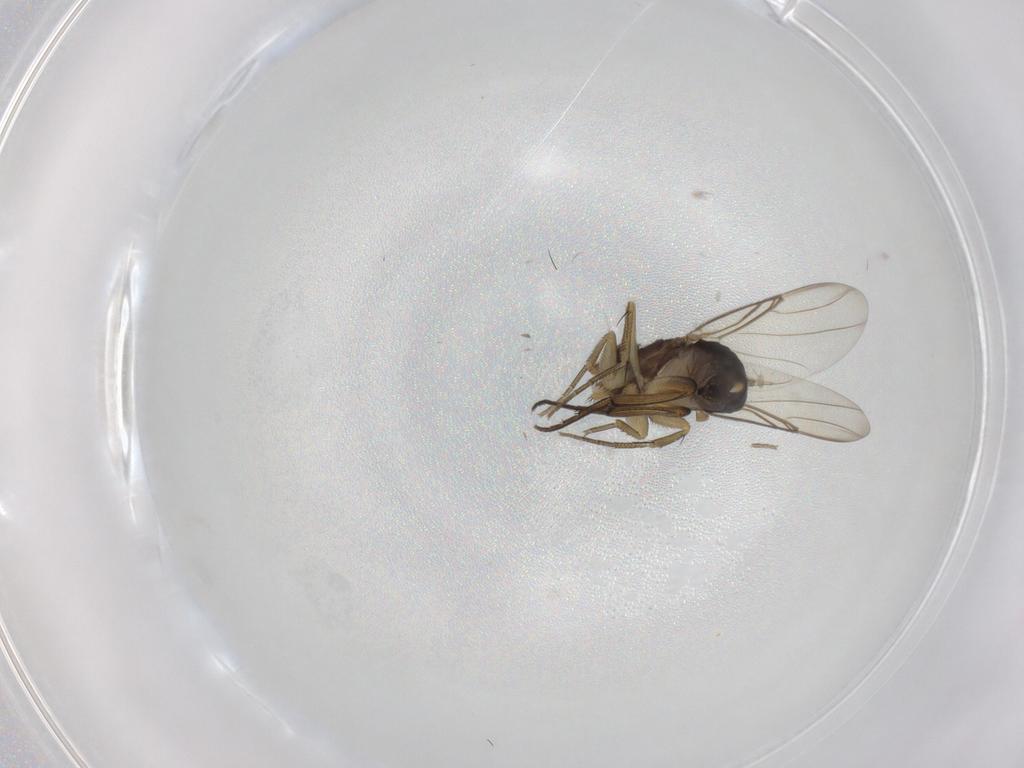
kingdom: Animalia
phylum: Arthropoda
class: Insecta
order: Diptera
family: Phoridae
